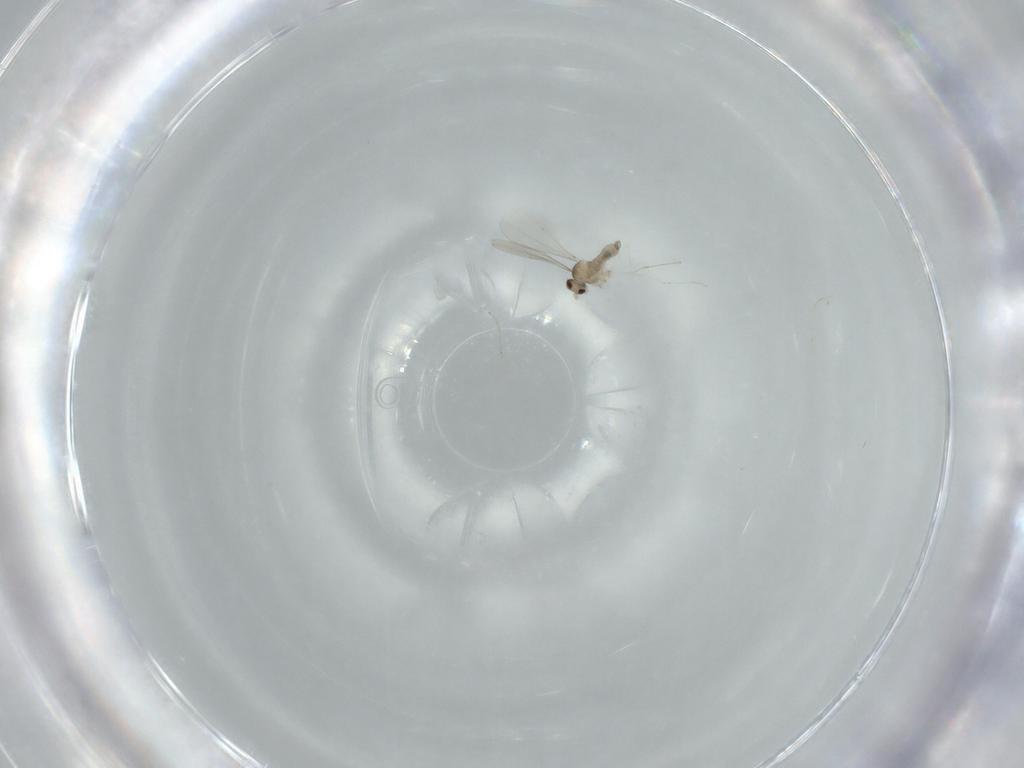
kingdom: Animalia
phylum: Arthropoda
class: Insecta
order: Diptera
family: Cecidomyiidae
